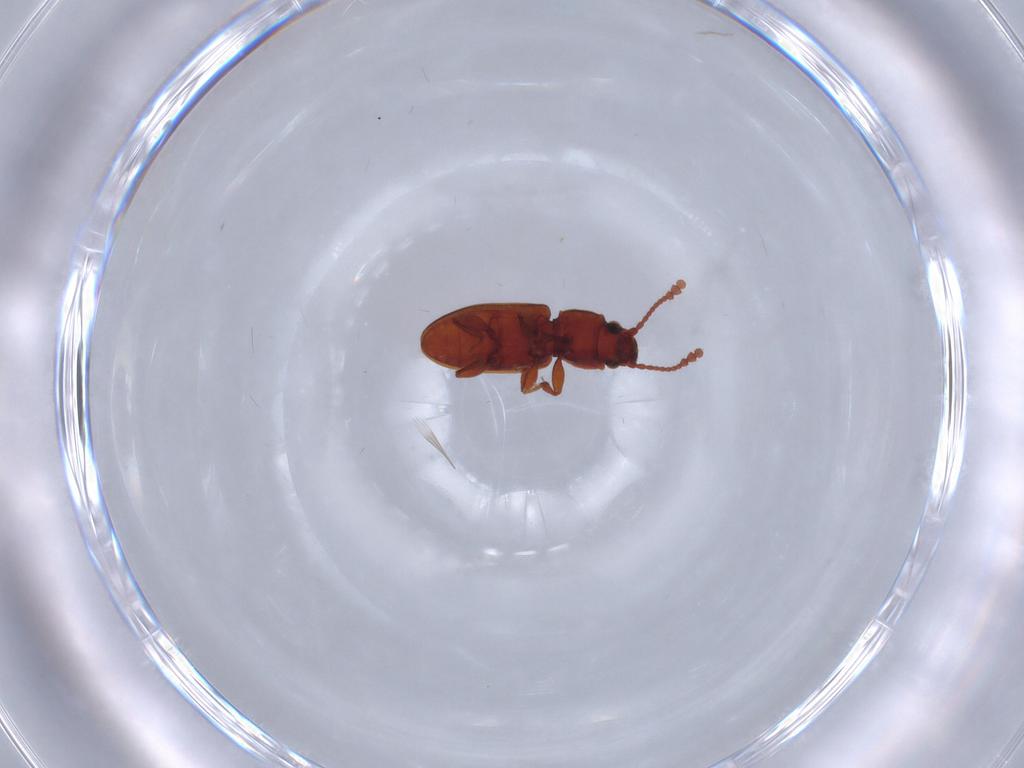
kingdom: Animalia
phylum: Arthropoda
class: Insecta
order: Coleoptera
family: Silvanidae
